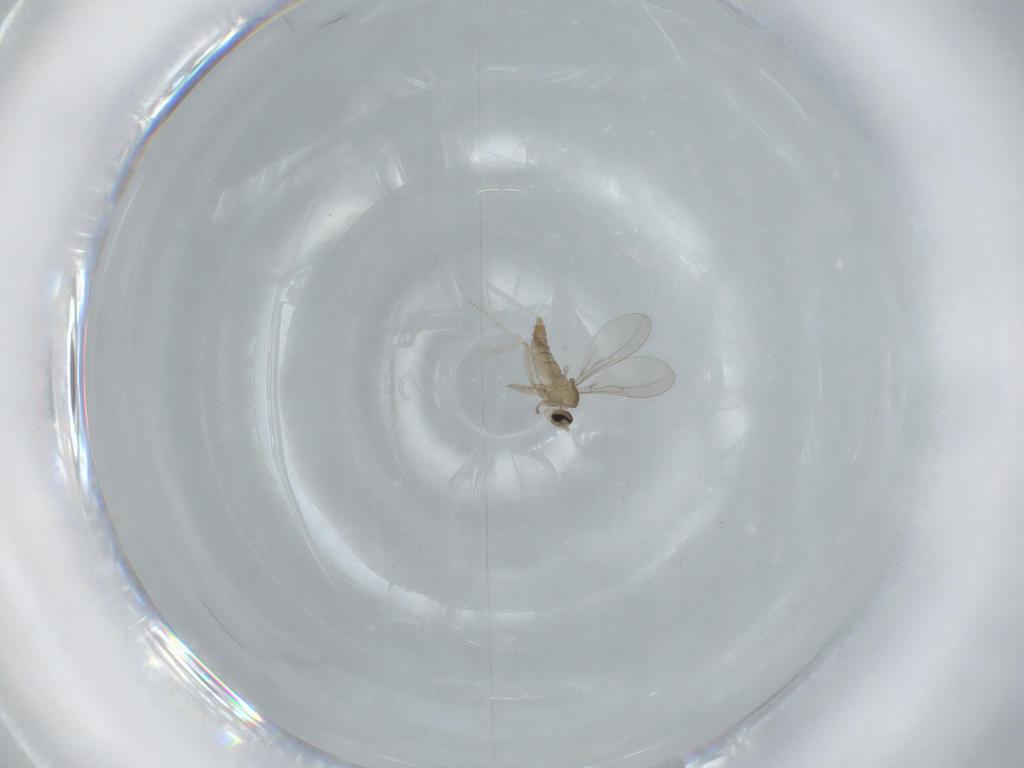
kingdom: Animalia
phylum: Arthropoda
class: Insecta
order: Diptera
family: Cecidomyiidae
